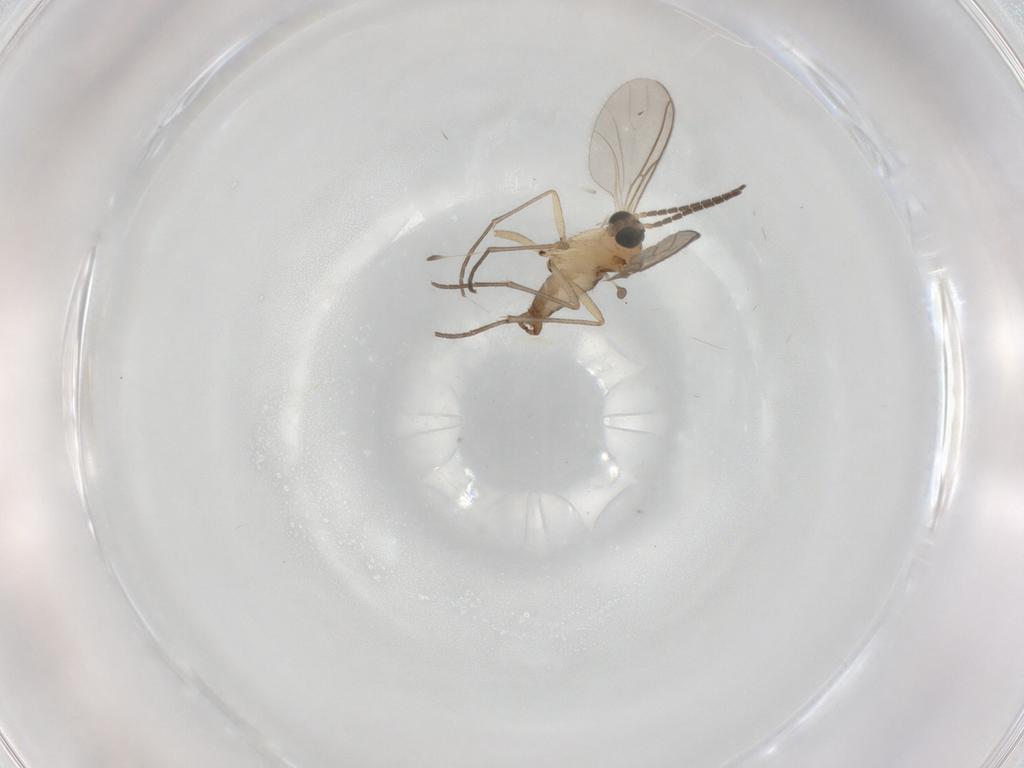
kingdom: Animalia
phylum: Arthropoda
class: Insecta
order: Diptera
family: Sciaridae
